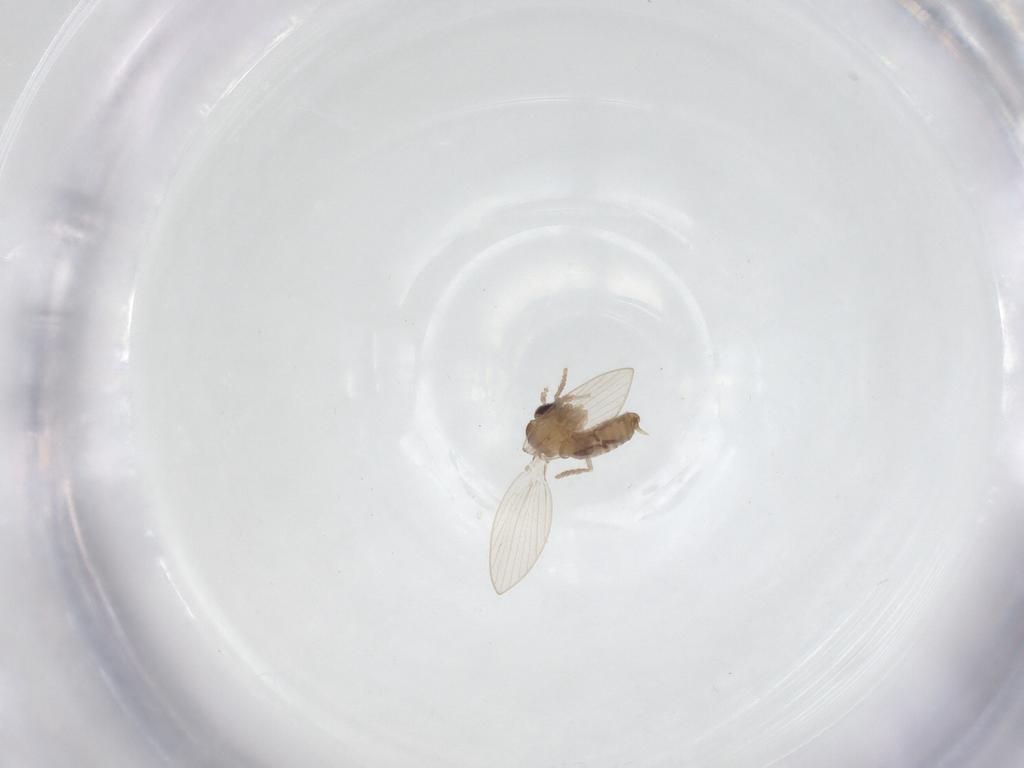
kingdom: Animalia
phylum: Arthropoda
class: Insecta
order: Diptera
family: Psychodidae
